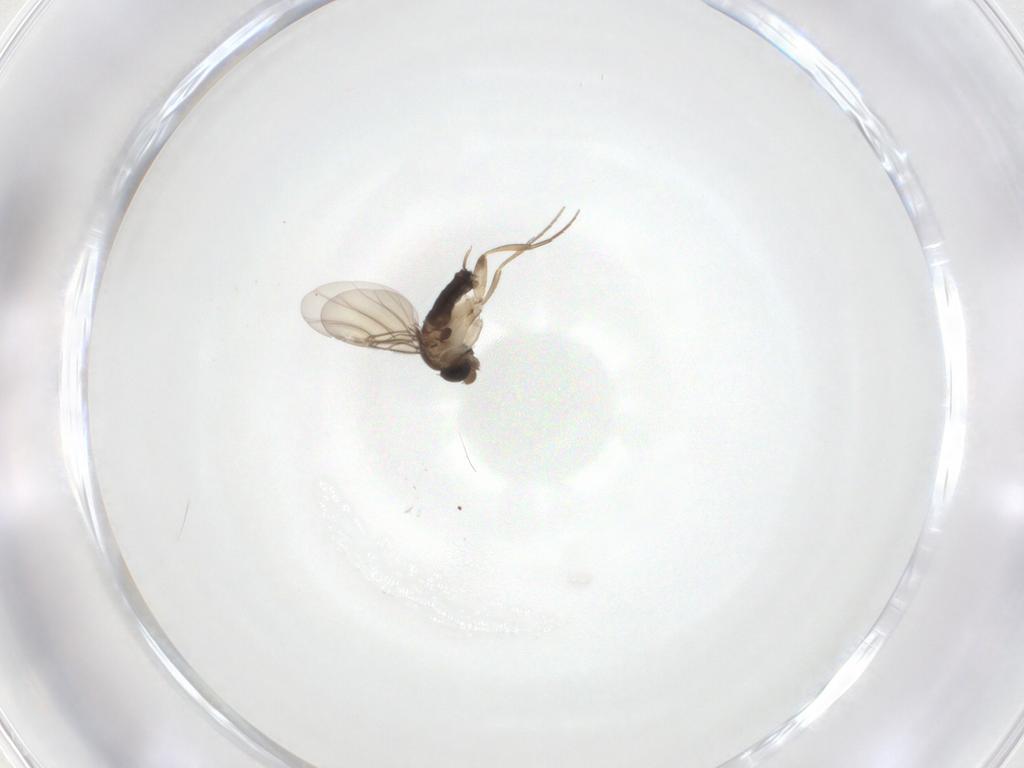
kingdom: Animalia
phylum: Arthropoda
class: Insecta
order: Diptera
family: Phoridae
